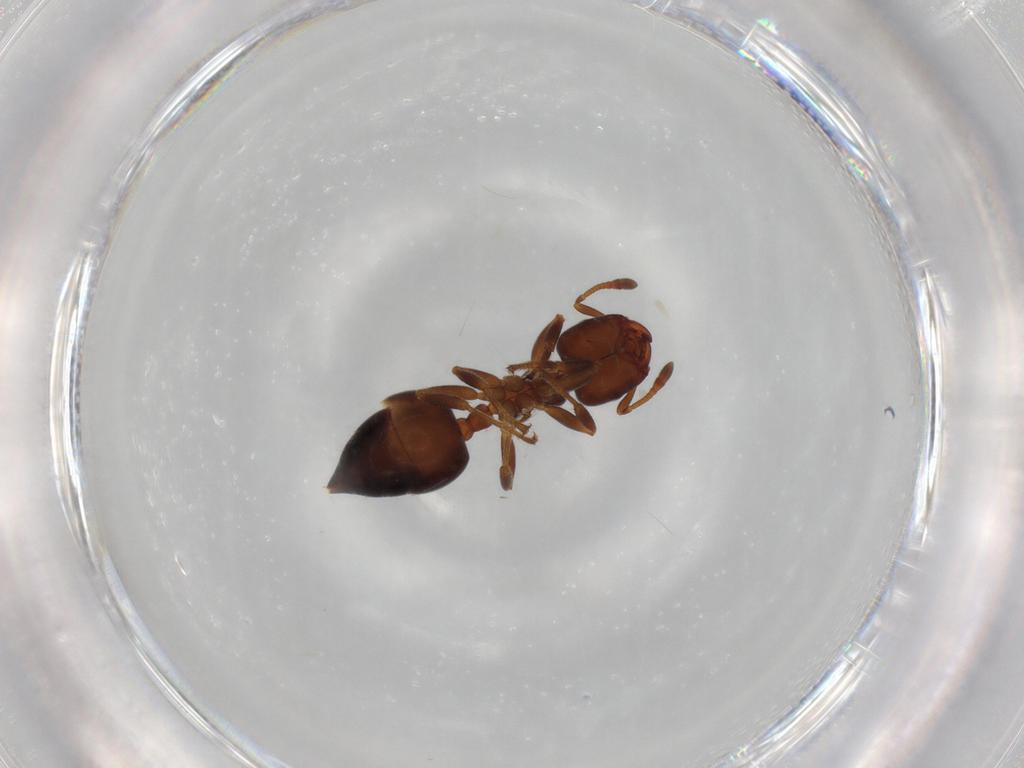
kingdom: Animalia
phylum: Arthropoda
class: Insecta
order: Hymenoptera
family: Formicidae
